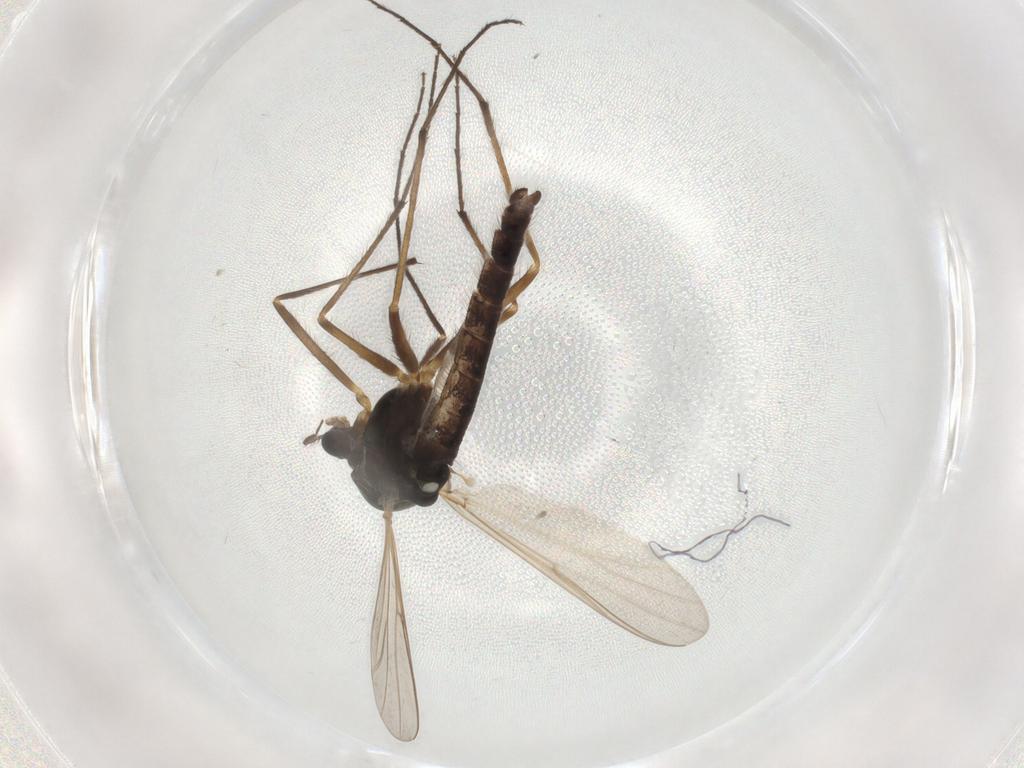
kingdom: Animalia
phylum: Arthropoda
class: Insecta
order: Diptera
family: Chironomidae
